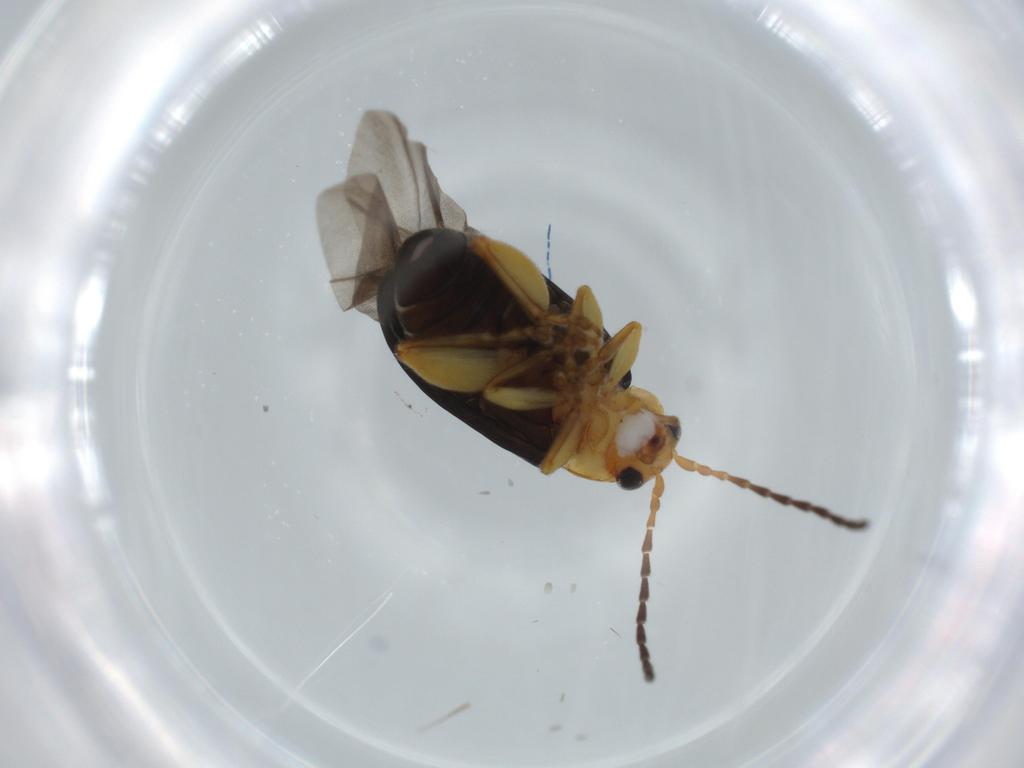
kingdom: Animalia
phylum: Arthropoda
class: Insecta
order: Coleoptera
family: Chrysomelidae
